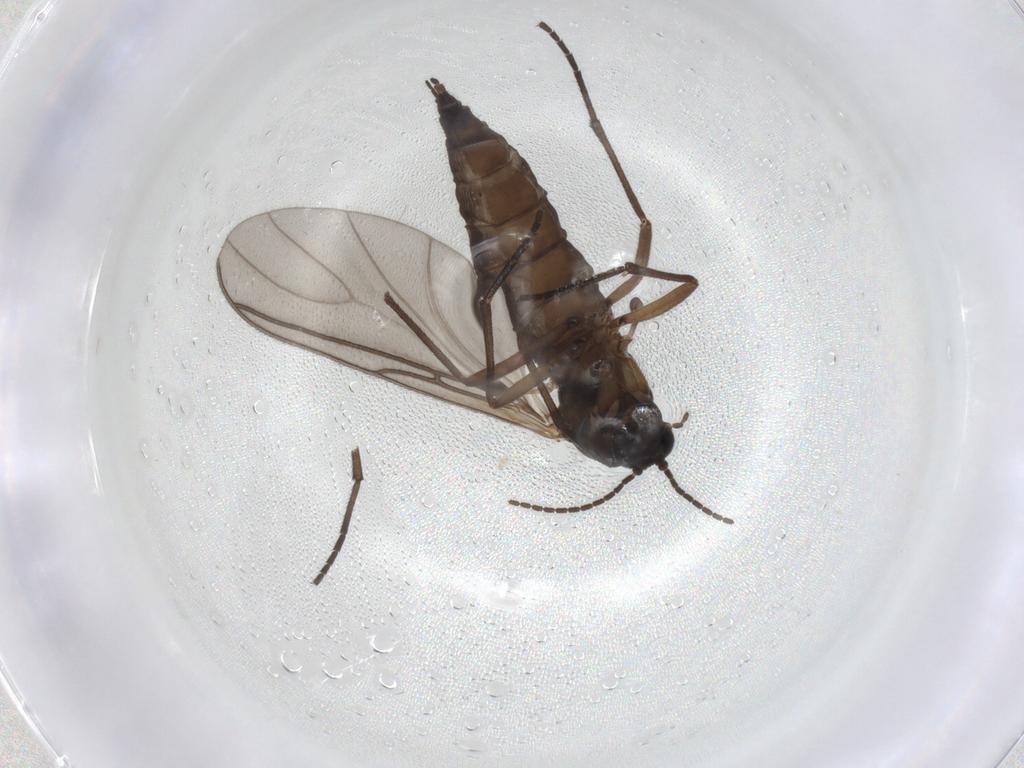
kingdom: Animalia
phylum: Arthropoda
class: Insecta
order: Diptera
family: Sciaridae
